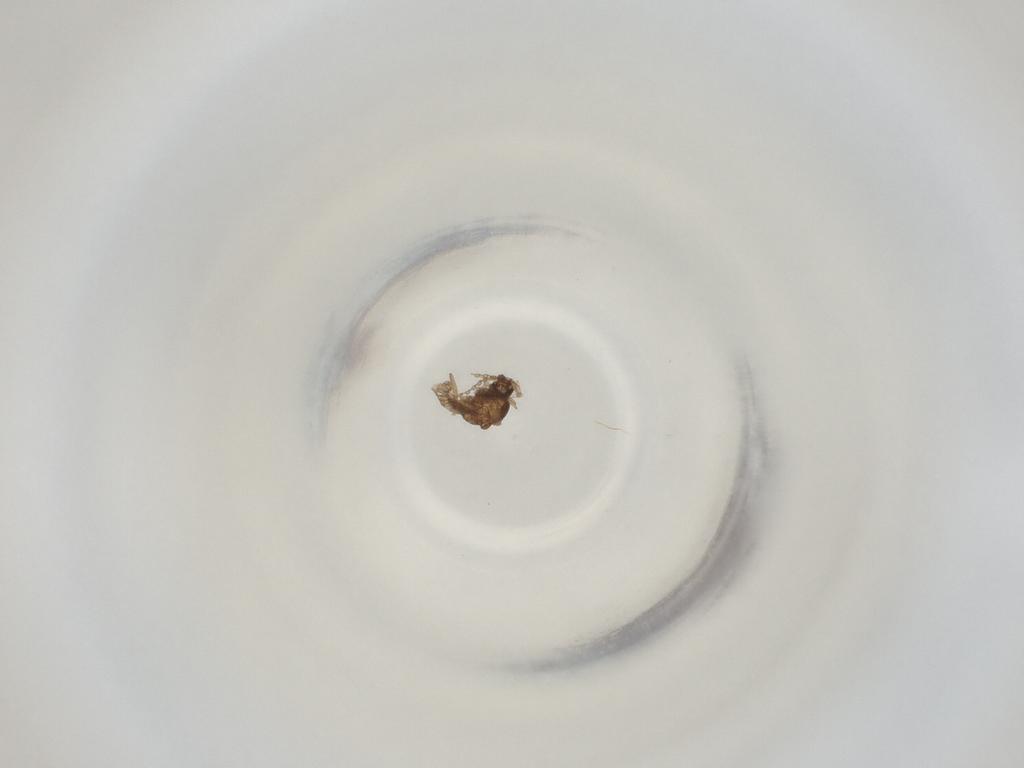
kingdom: Animalia
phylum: Arthropoda
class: Insecta
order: Diptera
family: Cecidomyiidae
